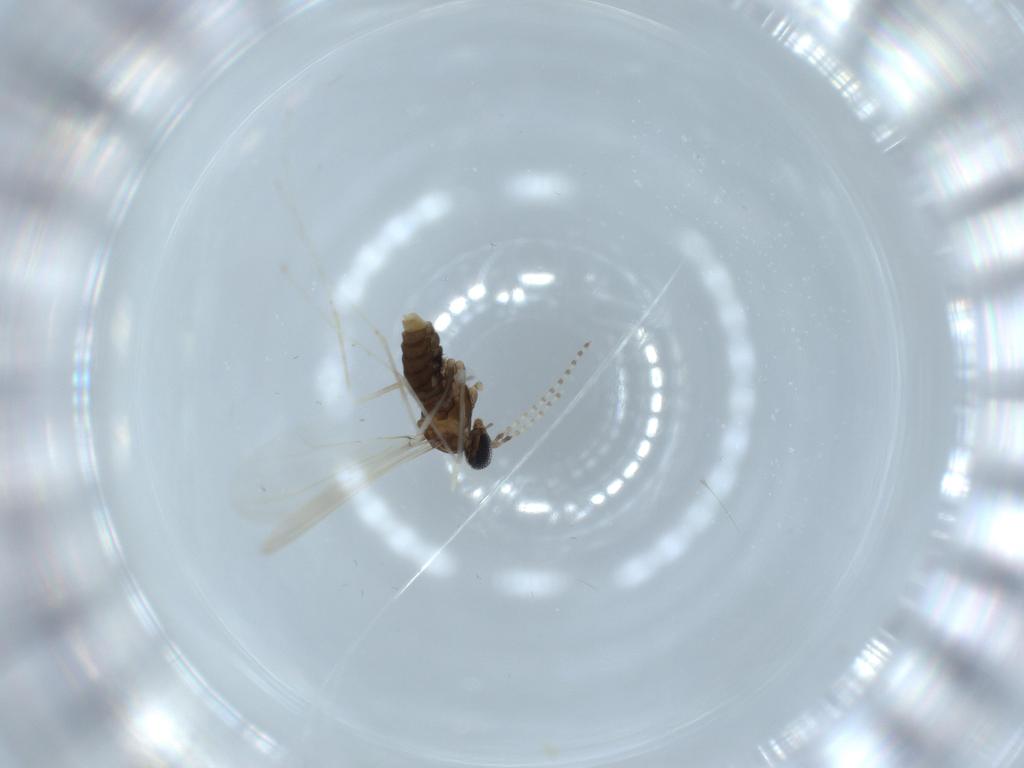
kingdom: Animalia
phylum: Arthropoda
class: Insecta
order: Diptera
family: Cecidomyiidae
